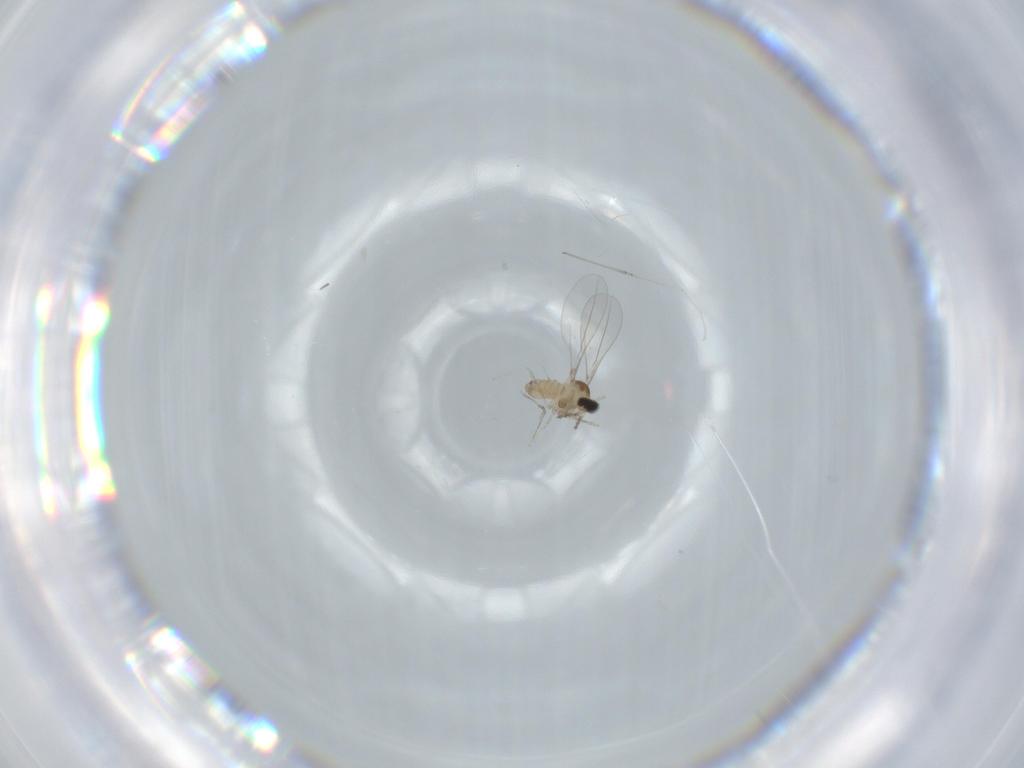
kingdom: Animalia
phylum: Arthropoda
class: Insecta
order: Diptera
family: Cecidomyiidae
